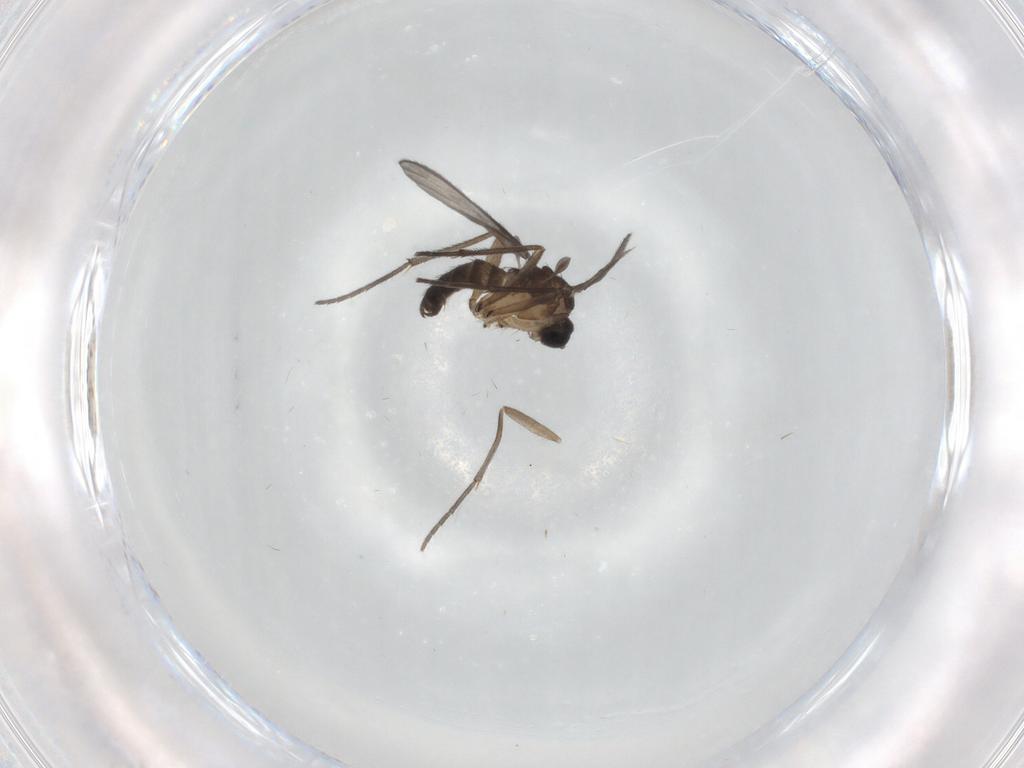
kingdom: Animalia
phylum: Arthropoda
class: Insecta
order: Diptera
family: Sciaridae
